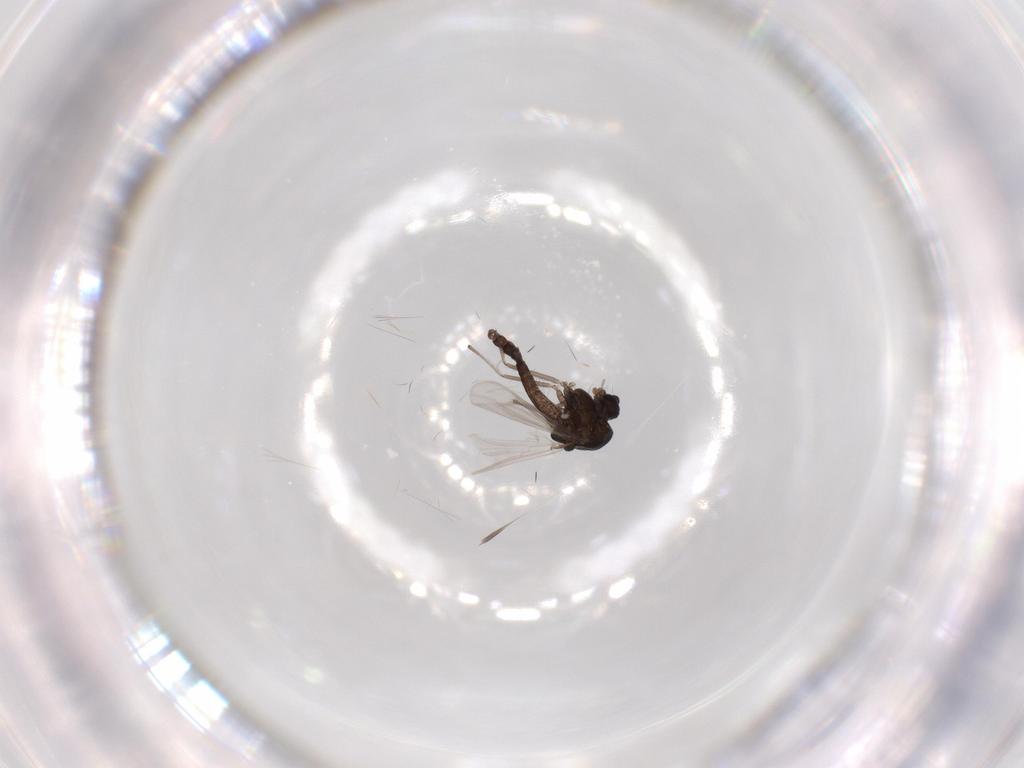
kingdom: Animalia
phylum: Arthropoda
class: Insecta
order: Diptera
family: Chironomidae
